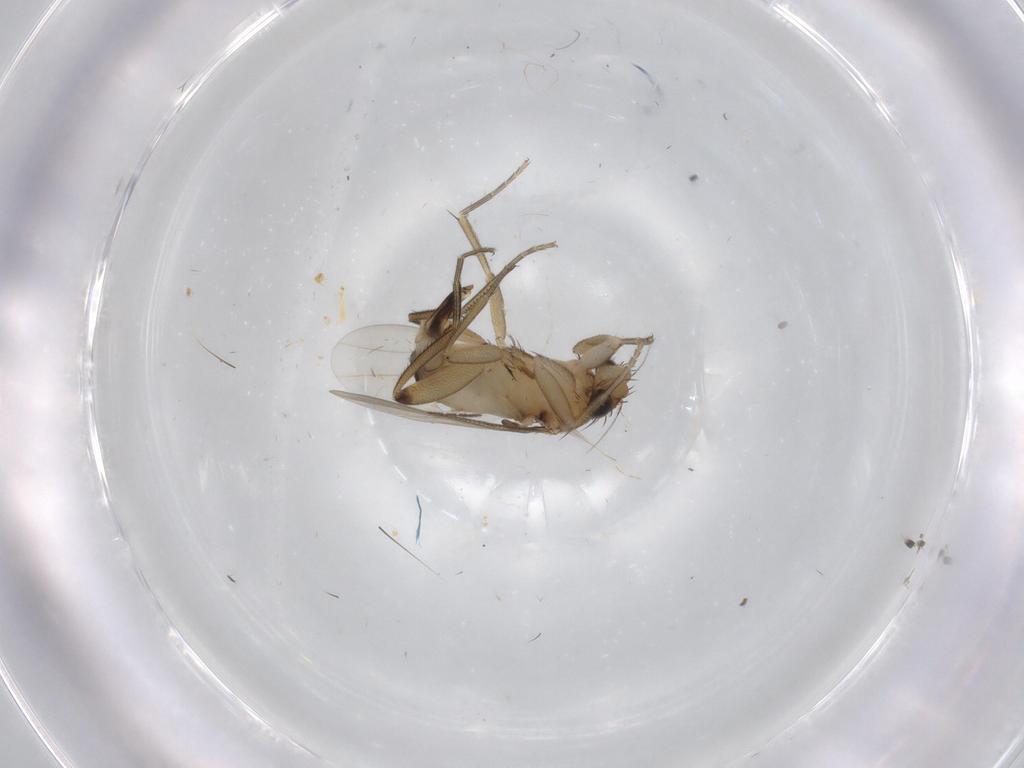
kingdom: Animalia
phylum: Arthropoda
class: Insecta
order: Diptera
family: Phoridae
